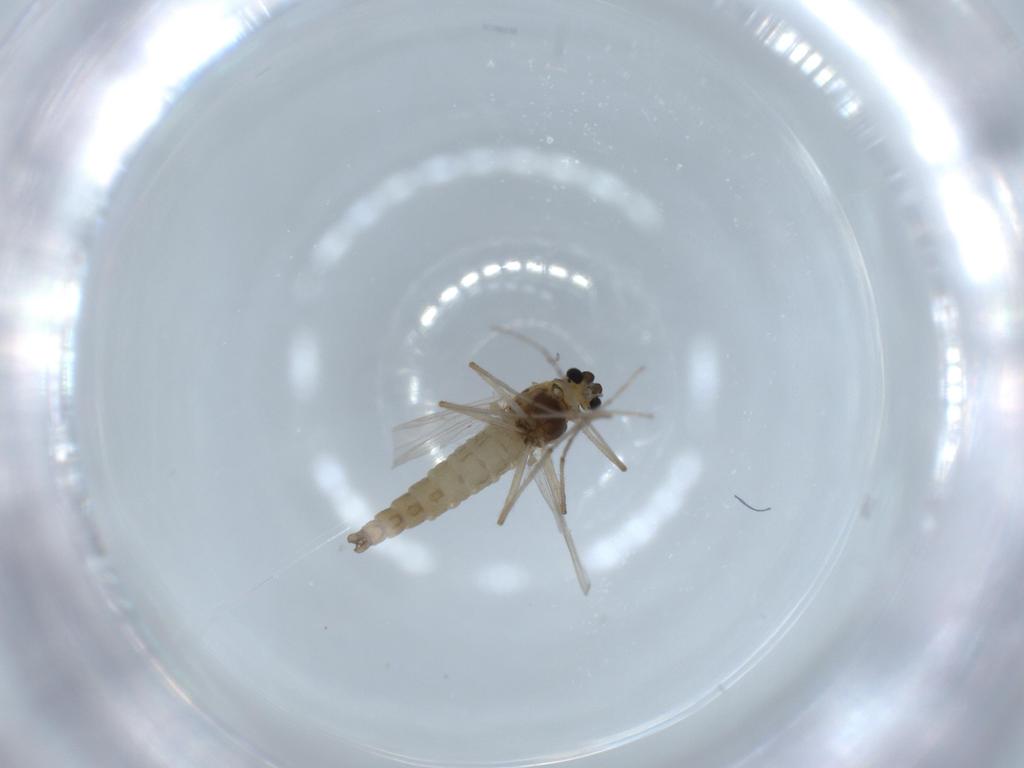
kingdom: Animalia
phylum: Arthropoda
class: Insecta
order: Diptera
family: Chironomidae
